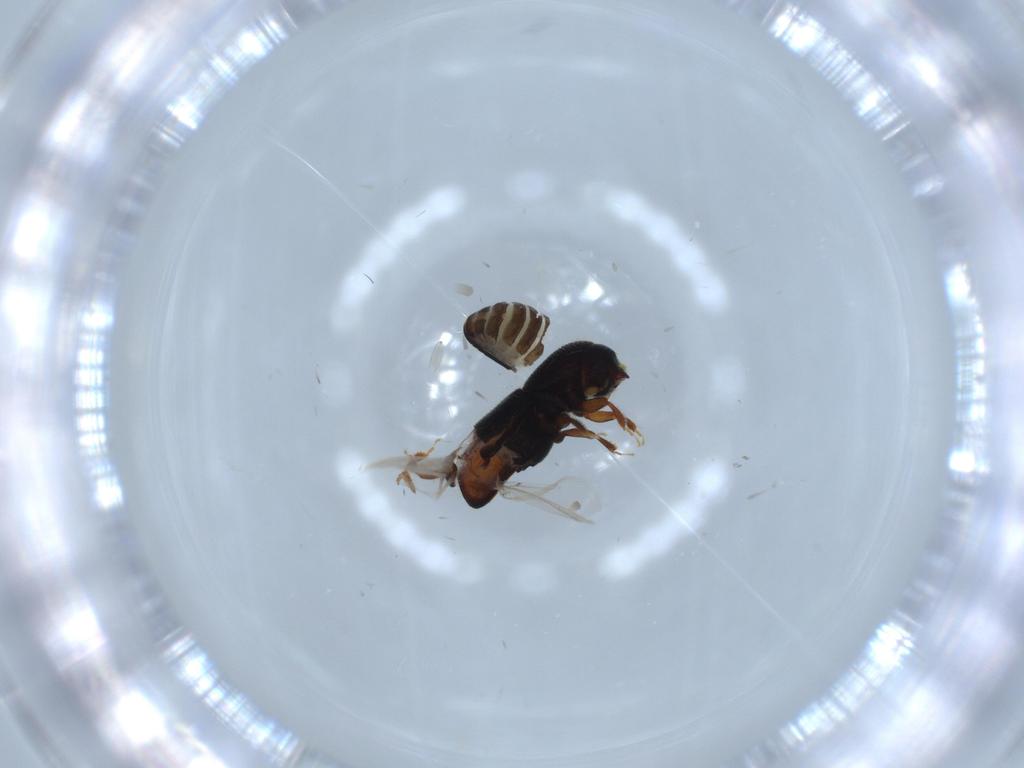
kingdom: Animalia
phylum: Arthropoda
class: Insecta
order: Coleoptera
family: Curculionidae
